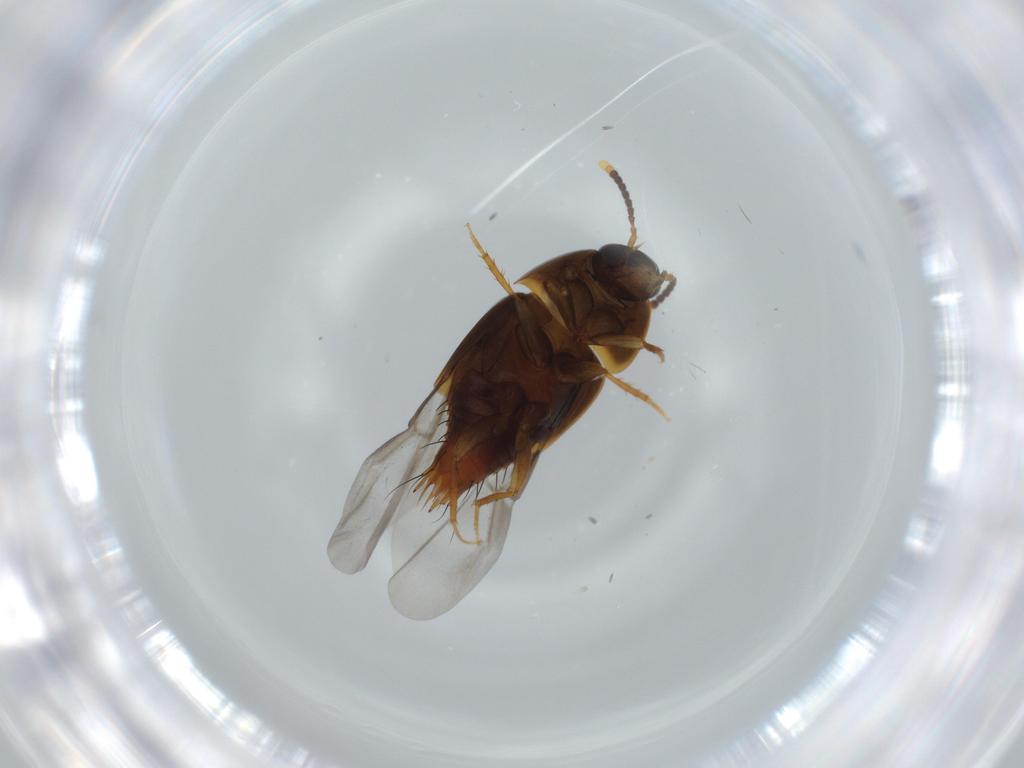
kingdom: Animalia
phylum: Arthropoda
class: Insecta
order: Coleoptera
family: Chrysomelidae
